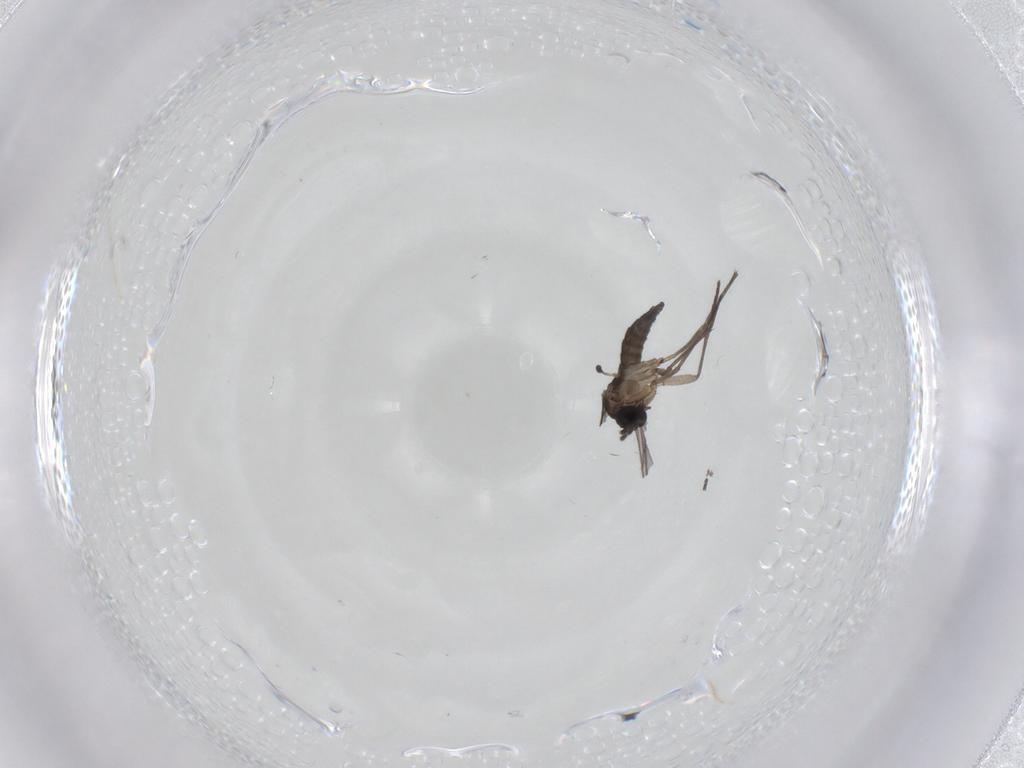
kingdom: Animalia
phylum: Arthropoda
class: Insecta
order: Diptera
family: Sciaridae
